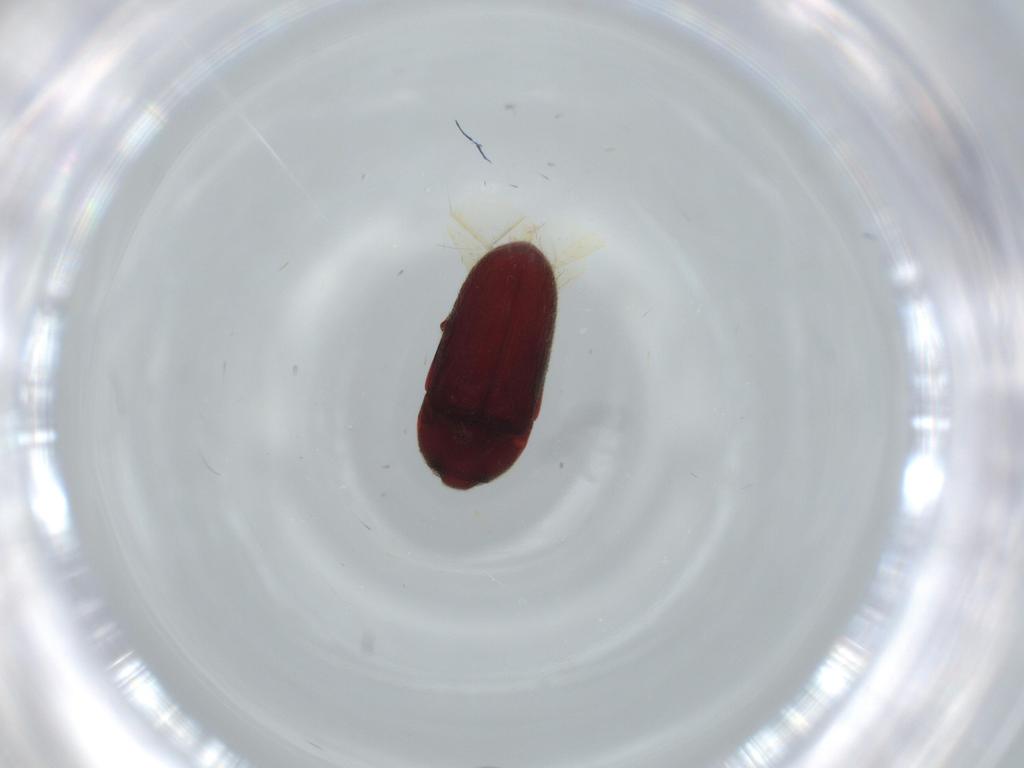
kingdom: Animalia
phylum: Arthropoda
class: Insecta
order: Coleoptera
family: Throscidae
